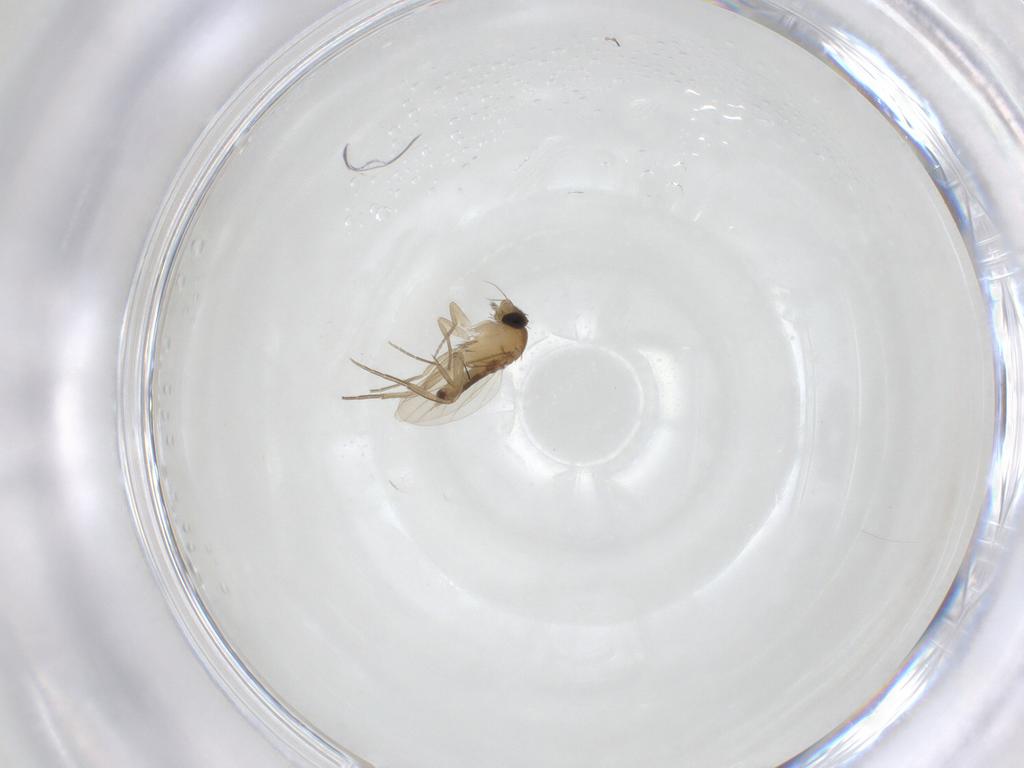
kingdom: Animalia
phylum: Arthropoda
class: Insecta
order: Diptera
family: Phoridae
